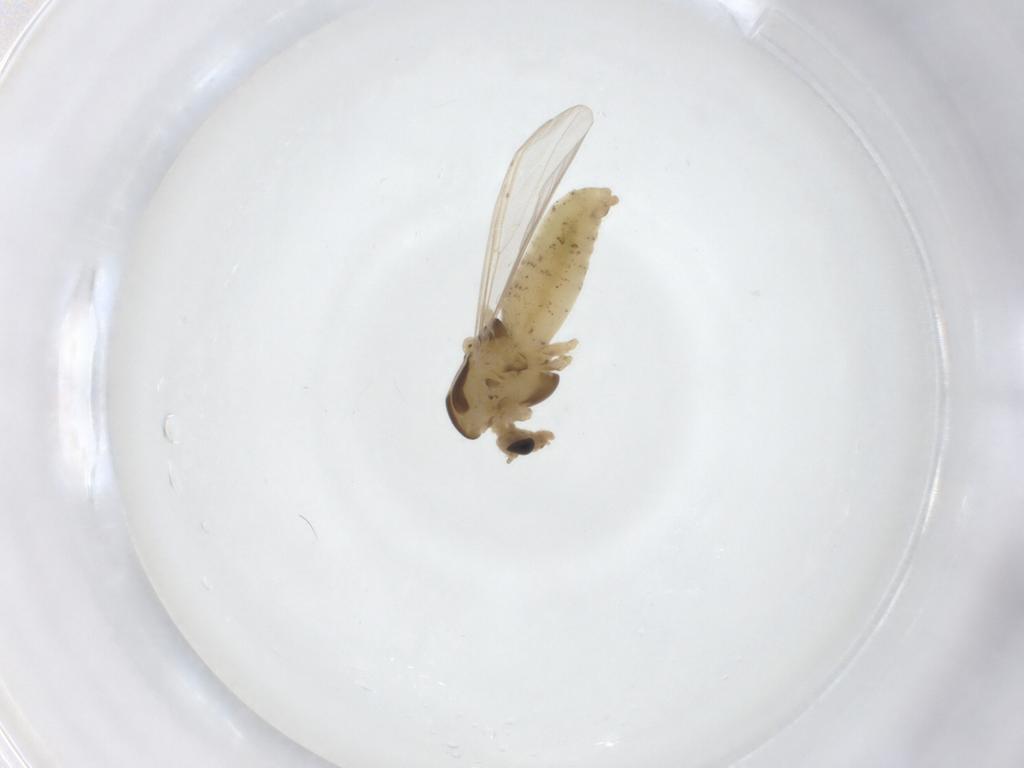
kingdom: Animalia
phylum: Arthropoda
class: Insecta
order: Diptera
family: Chironomidae
